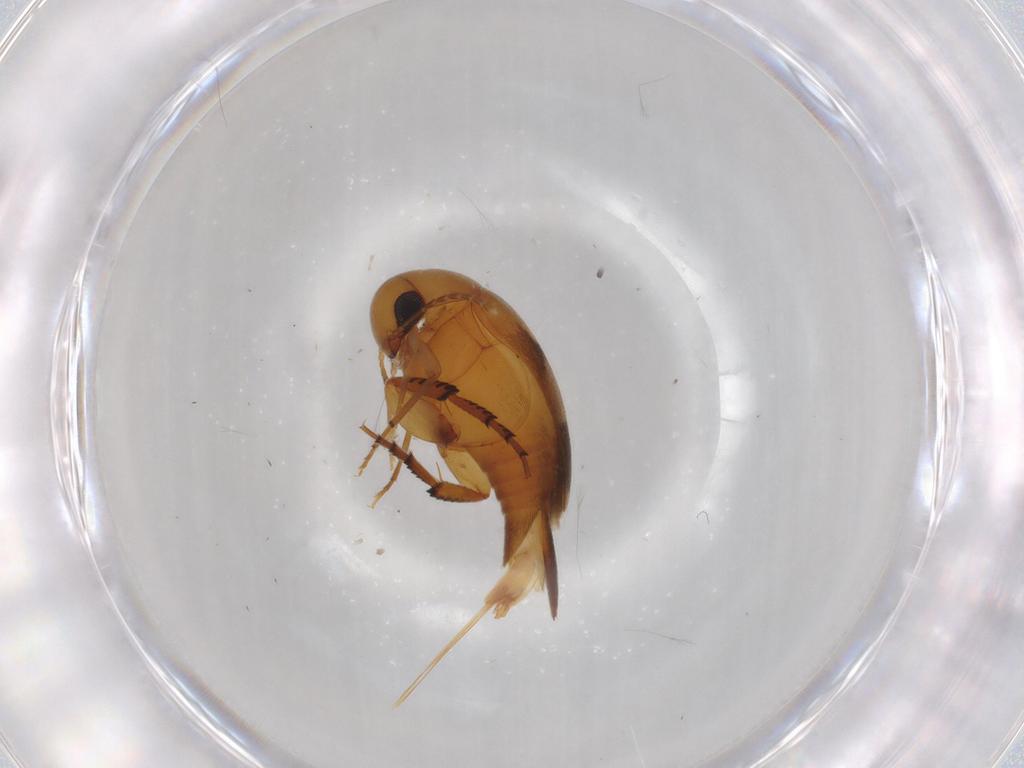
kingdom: Animalia
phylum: Arthropoda
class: Insecta
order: Coleoptera
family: Mordellidae
